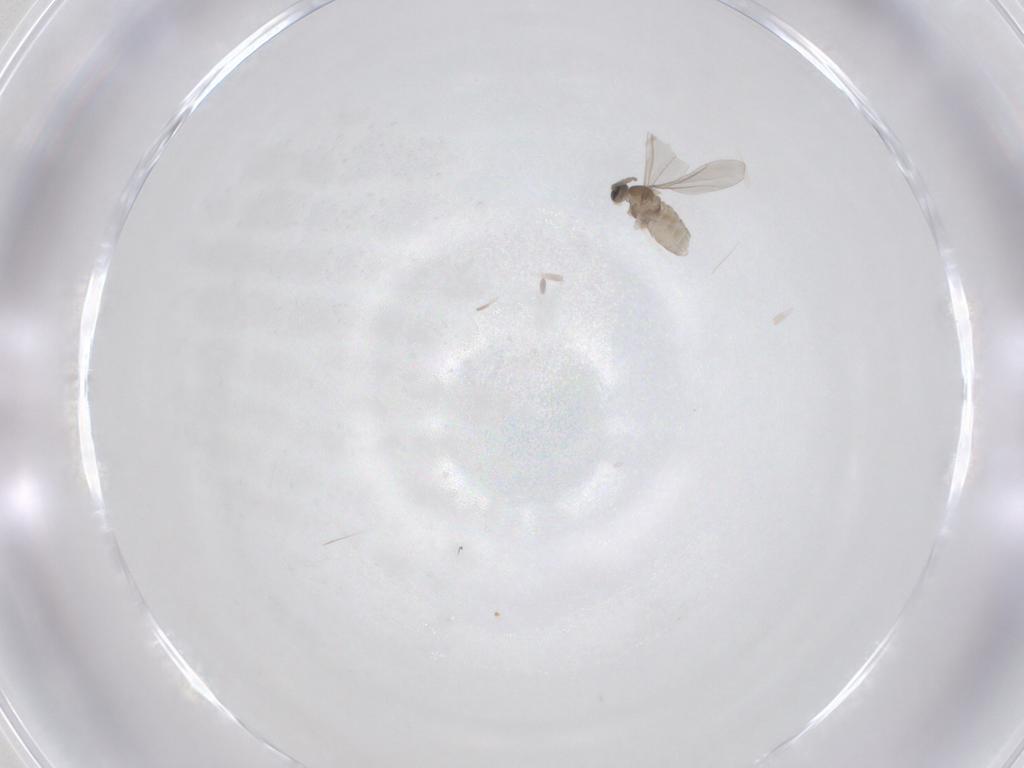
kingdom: Animalia
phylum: Arthropoda
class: Insecta
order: Diptera
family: Cecidomyiidae
